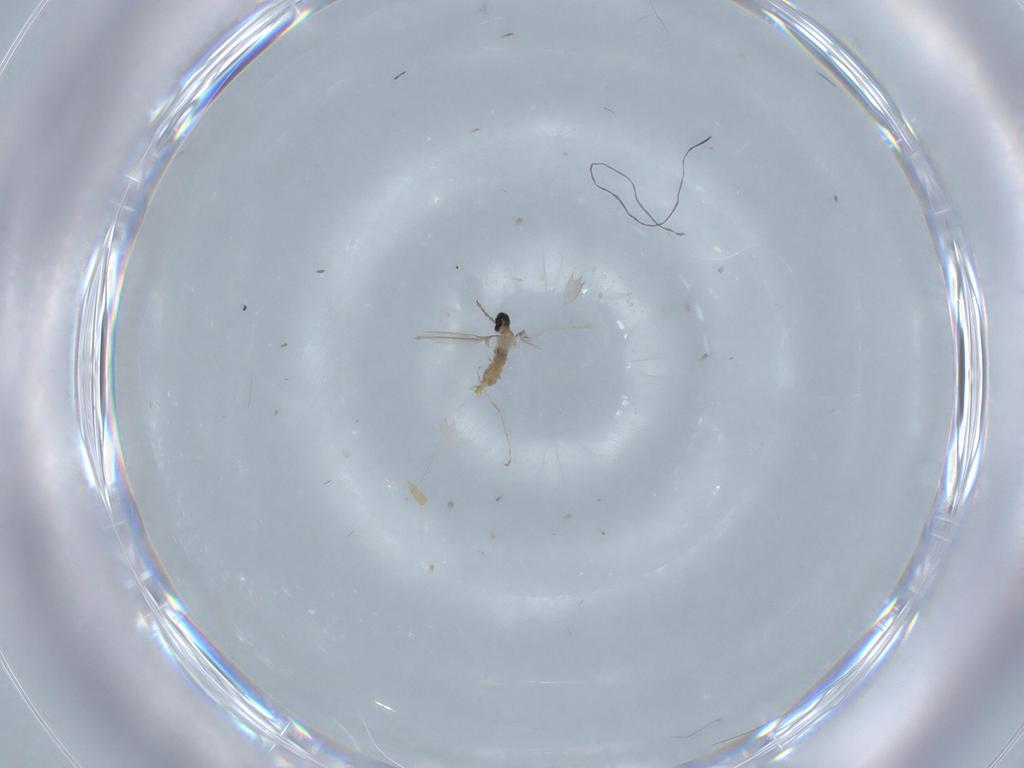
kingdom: Animalia
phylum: Arthropoda
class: Insecta
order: Diptera
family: Cecidomyiidae
